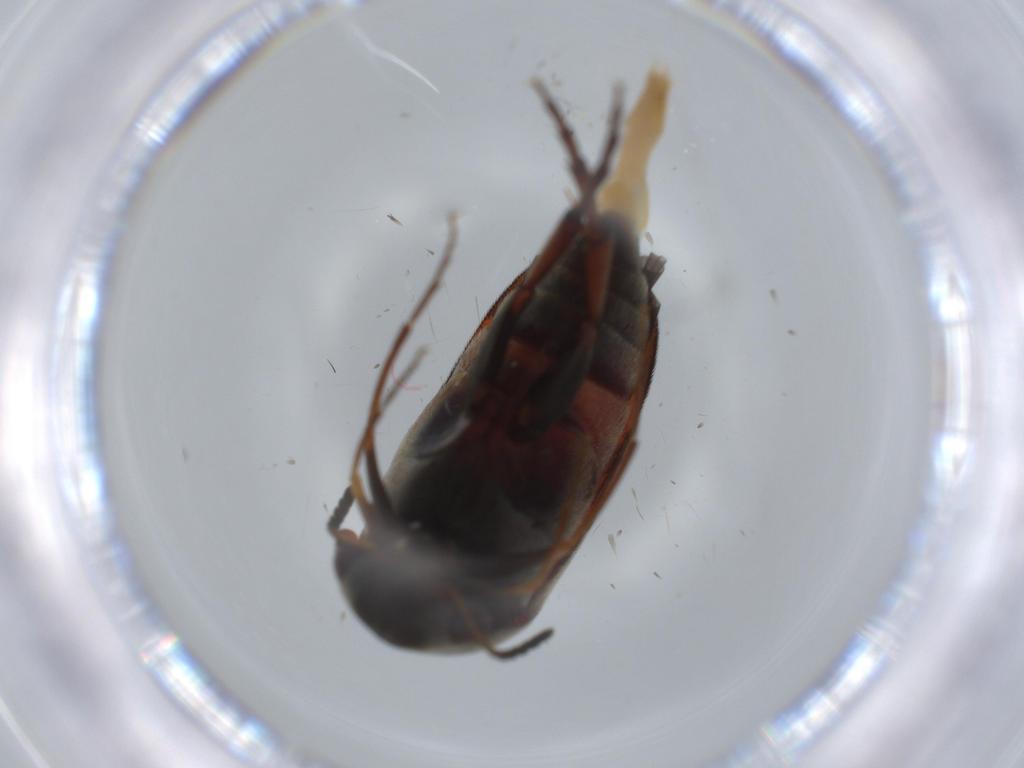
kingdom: Animalia
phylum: Arthropoda
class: Insecta
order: Coleoptera
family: Mordellidae
